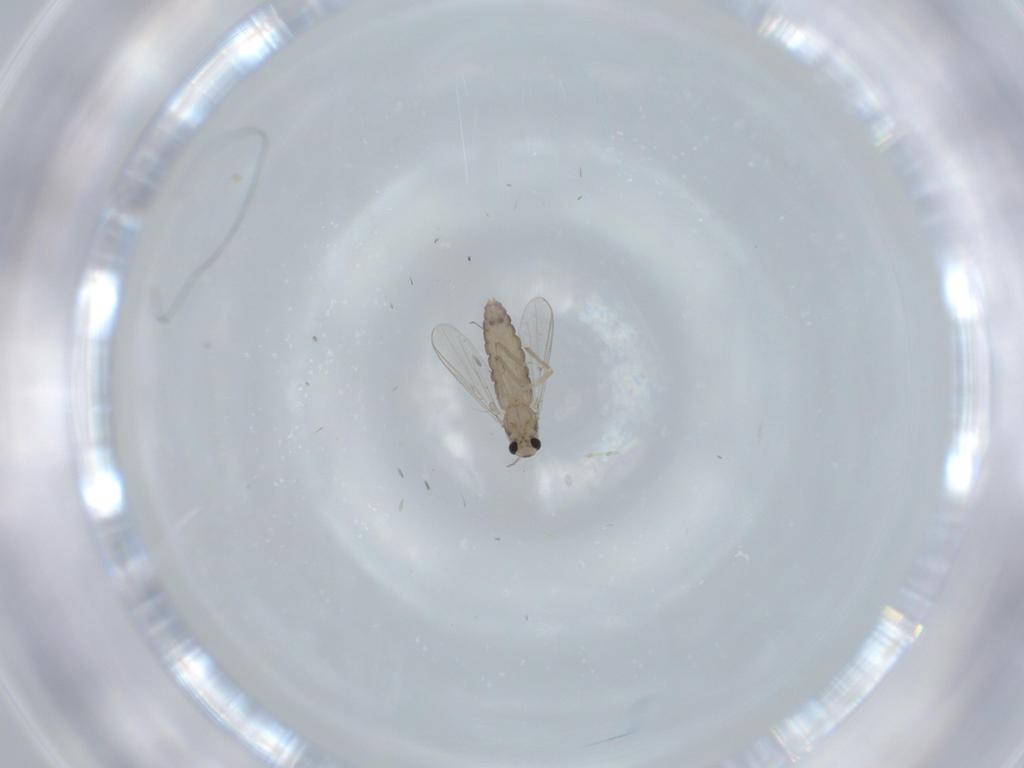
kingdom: Animalia
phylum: Arthropoda
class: Insecta
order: Diptera
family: Chironomidae
